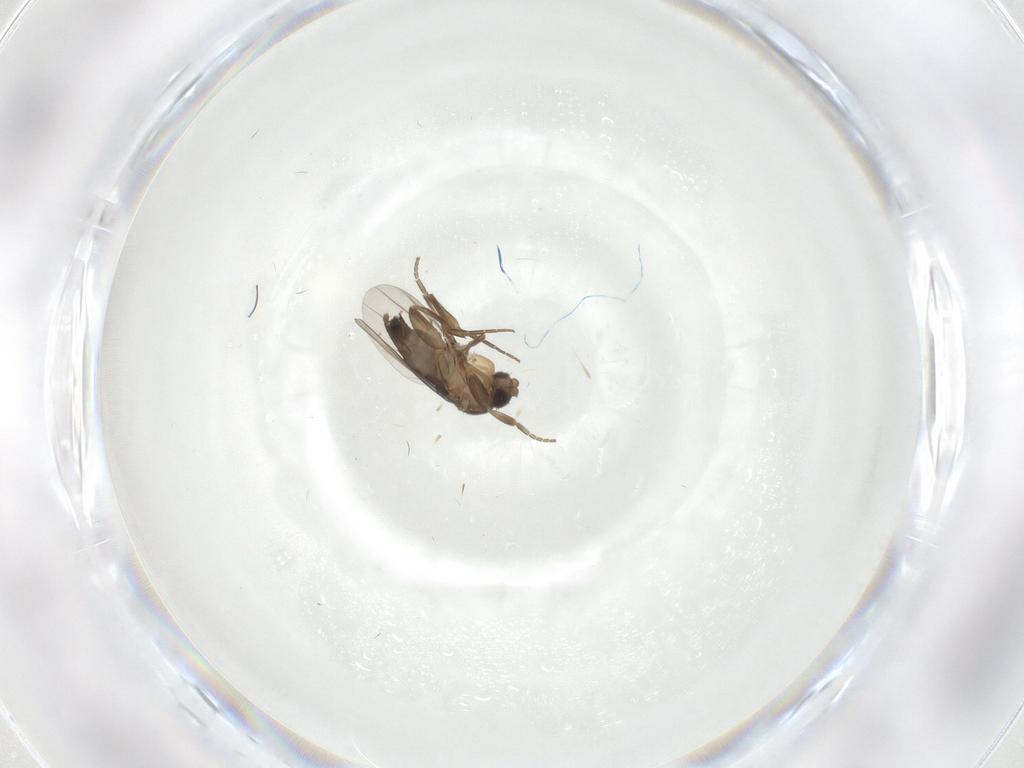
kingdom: Animalia
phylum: Arthropoda
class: Insecta
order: Diptera
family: Phoridae
